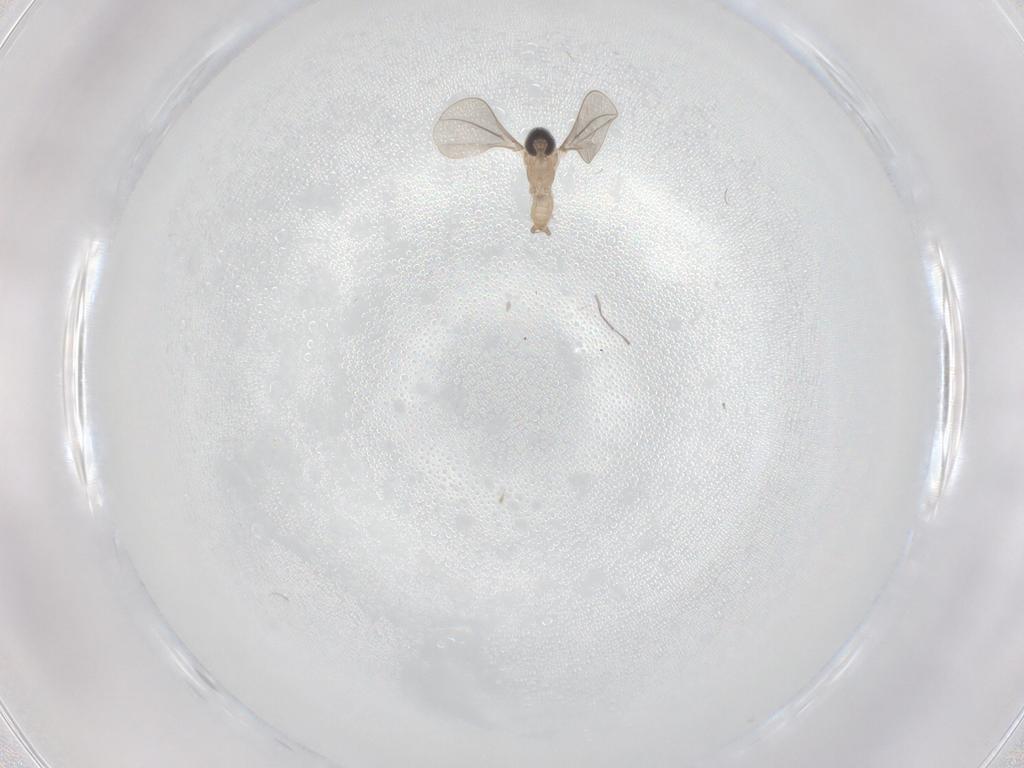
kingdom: Animalia
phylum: Arthropoda
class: Insecta
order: Diptera
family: Cecidomyiidae
